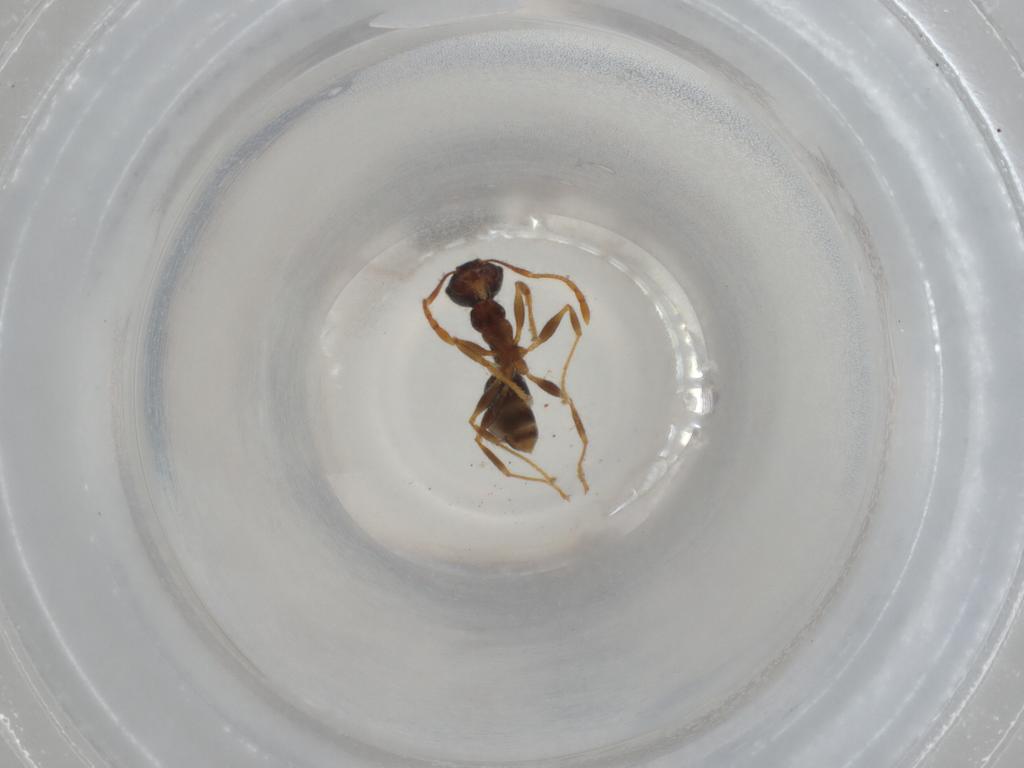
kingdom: Animalia
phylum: Arthropoda
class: Insecta
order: Hymenoptera
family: Formicidae
